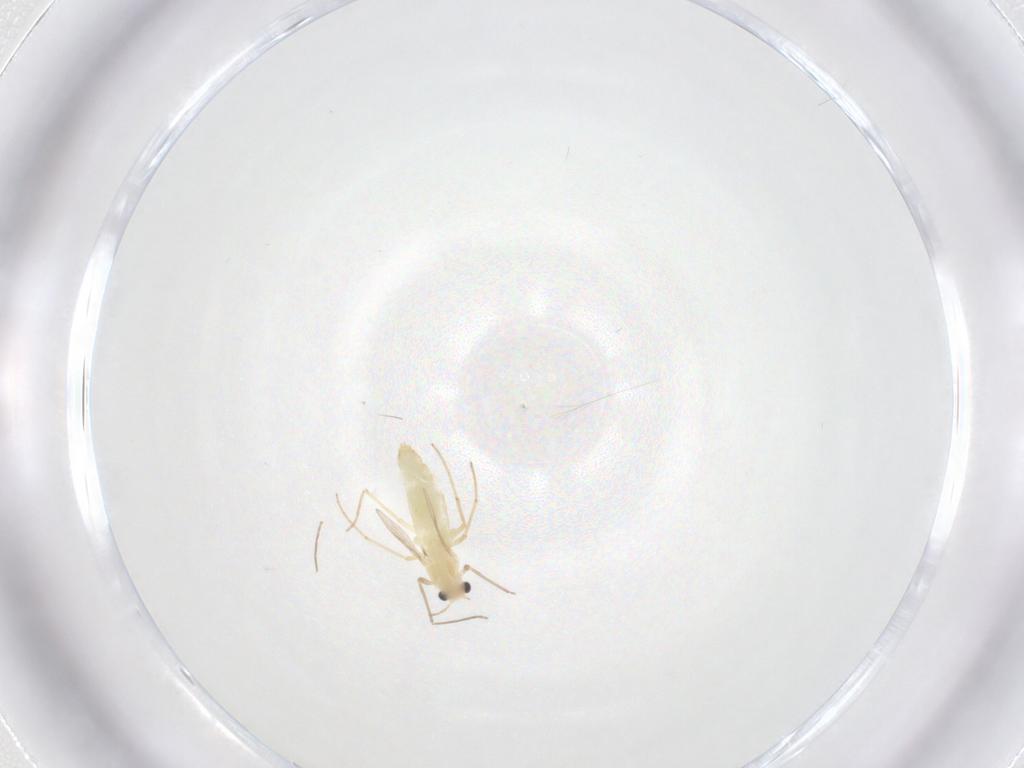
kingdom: Animalia
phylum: Arthropoda
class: Insecta
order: Diptera
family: Chironomidae
